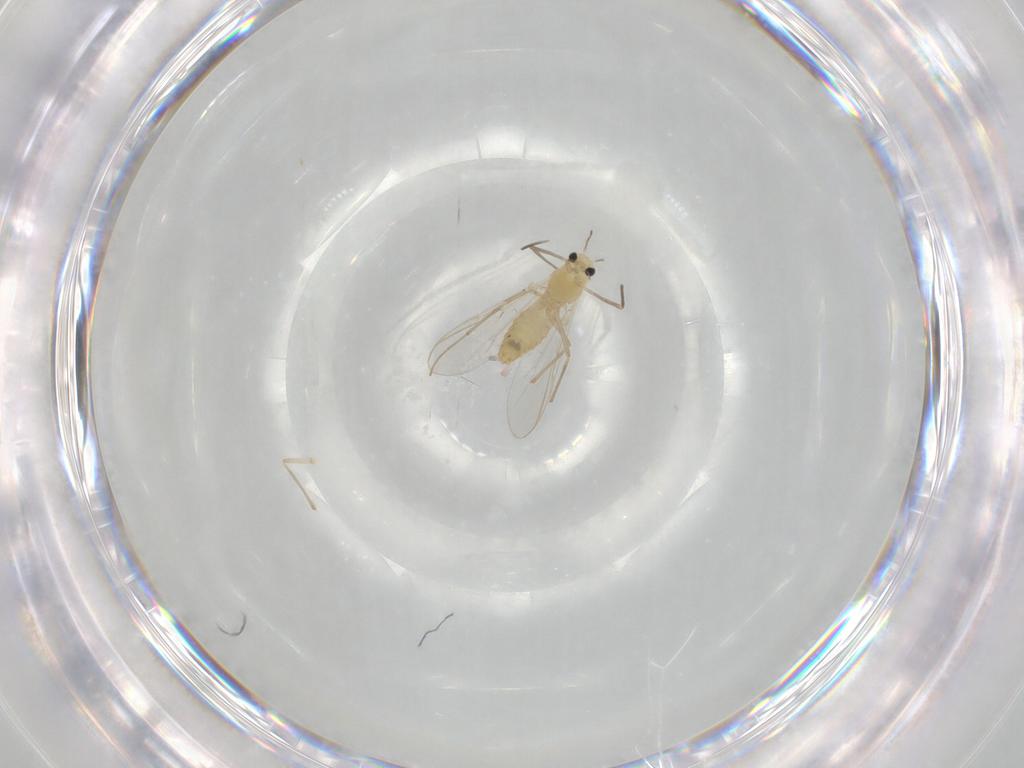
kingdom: Animalia
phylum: Arthropoda
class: Insecta
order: Diptera
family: Chironomidae
